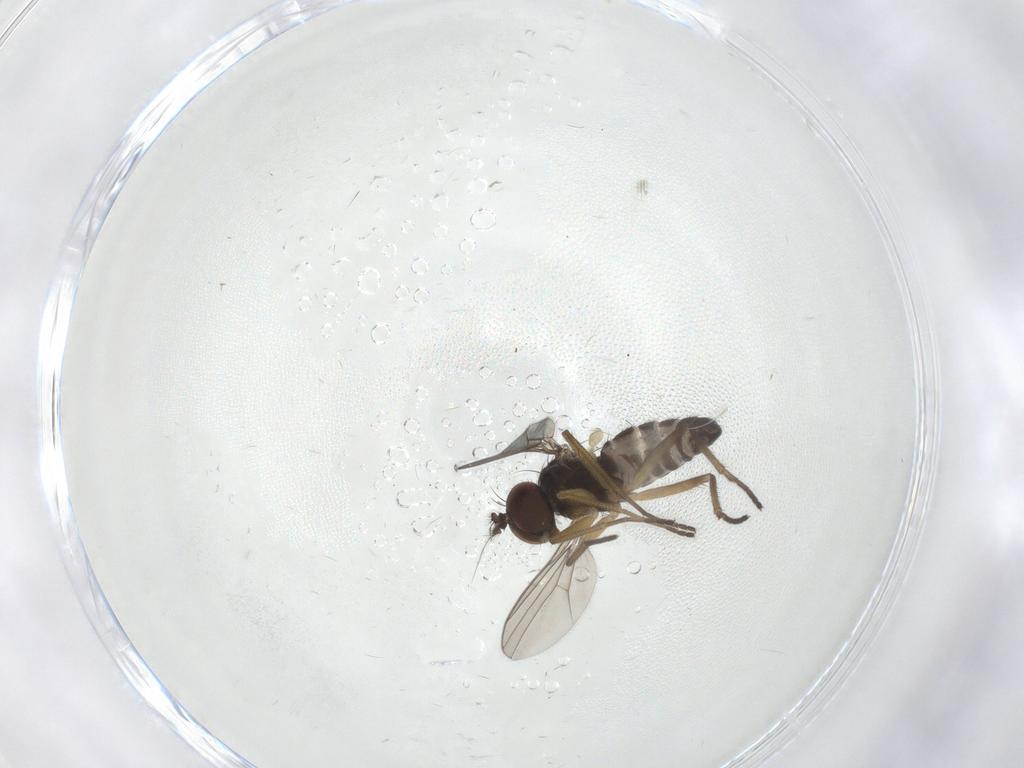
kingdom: Animalia
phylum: Arthropoda
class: Insecta
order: Diptera
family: Dolichopodidae
